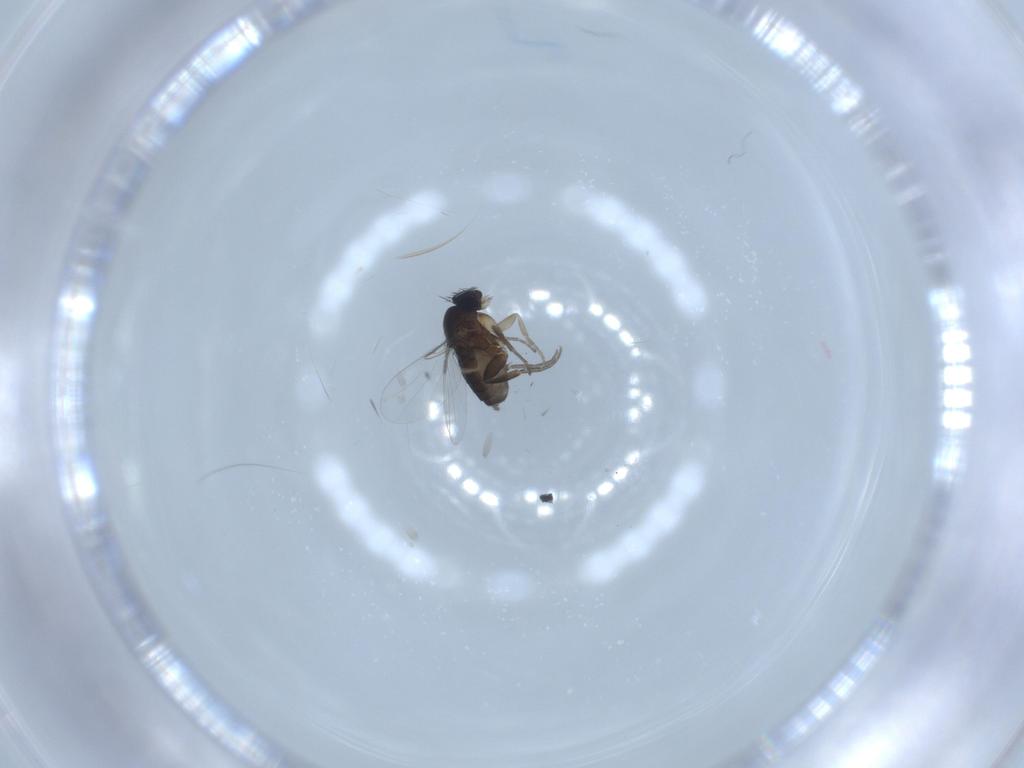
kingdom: Animalia
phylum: Arthropoda
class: Insecta
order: Diptera
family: Phoridae
